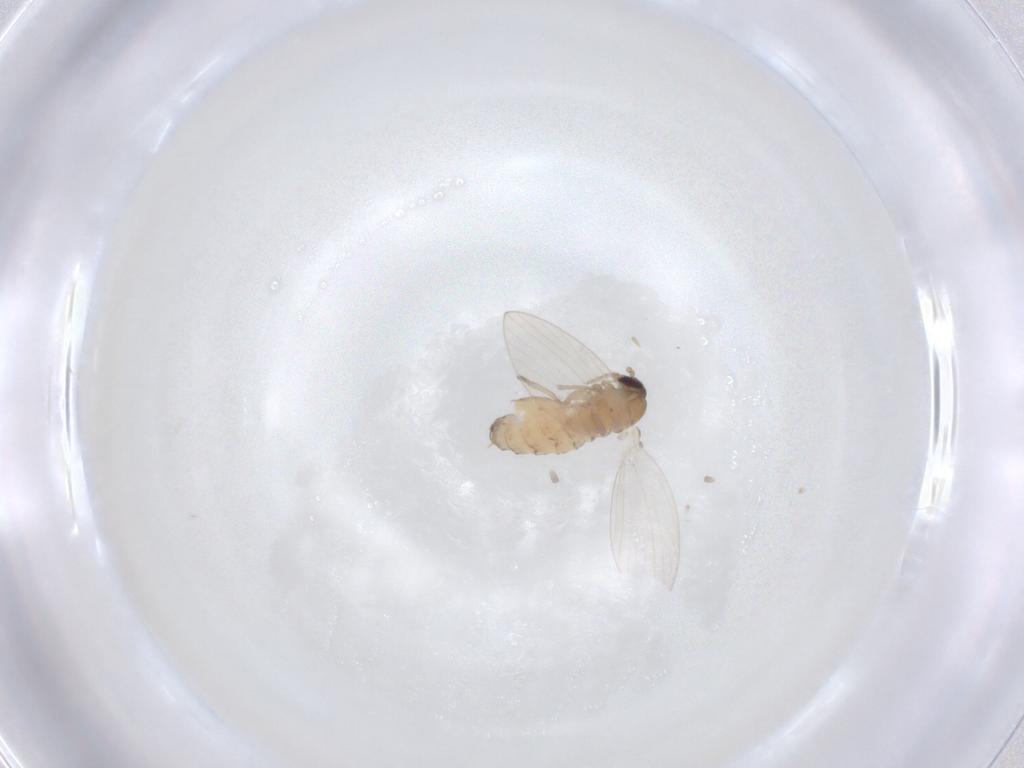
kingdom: Animalia
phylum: Arthropoda
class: Insecta
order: Diptera
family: Psychodidae
